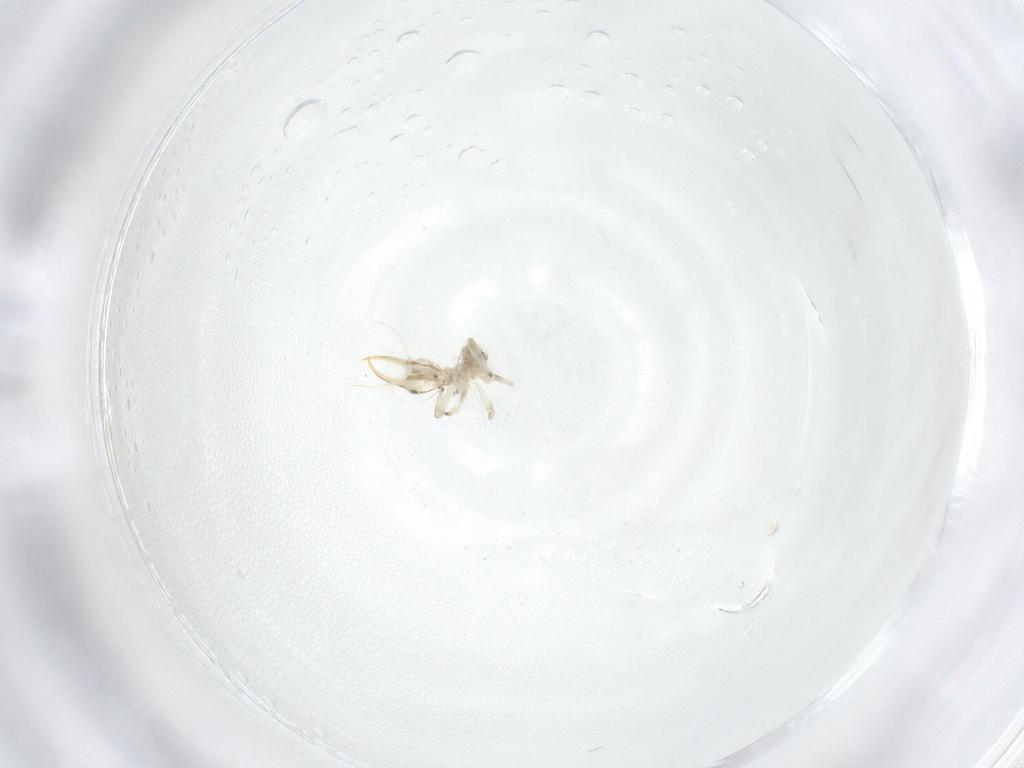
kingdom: Animalia
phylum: Arthropoda
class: Insecta
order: Neuroptera
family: Chrysopidae
